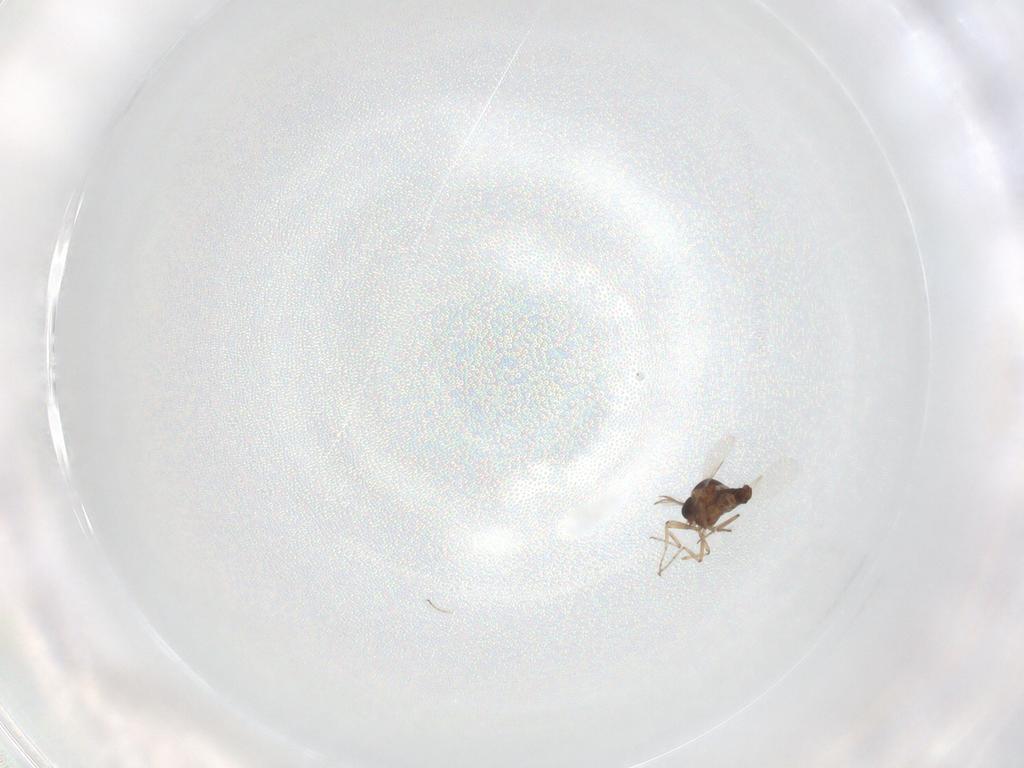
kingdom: Animalia
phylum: Arthropoda
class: Insecta
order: Diptera
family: Ceratopogonidae
